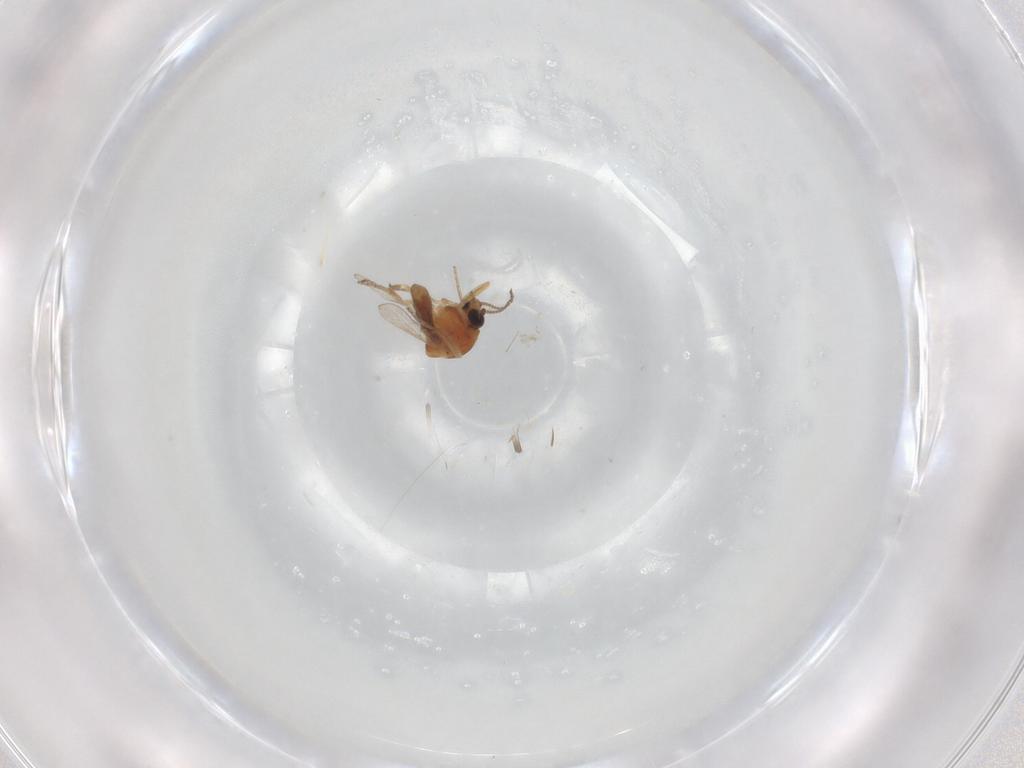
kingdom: Animalia
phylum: Arthropoda
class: Insecta
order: Diptera
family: Ceratopogonidae
